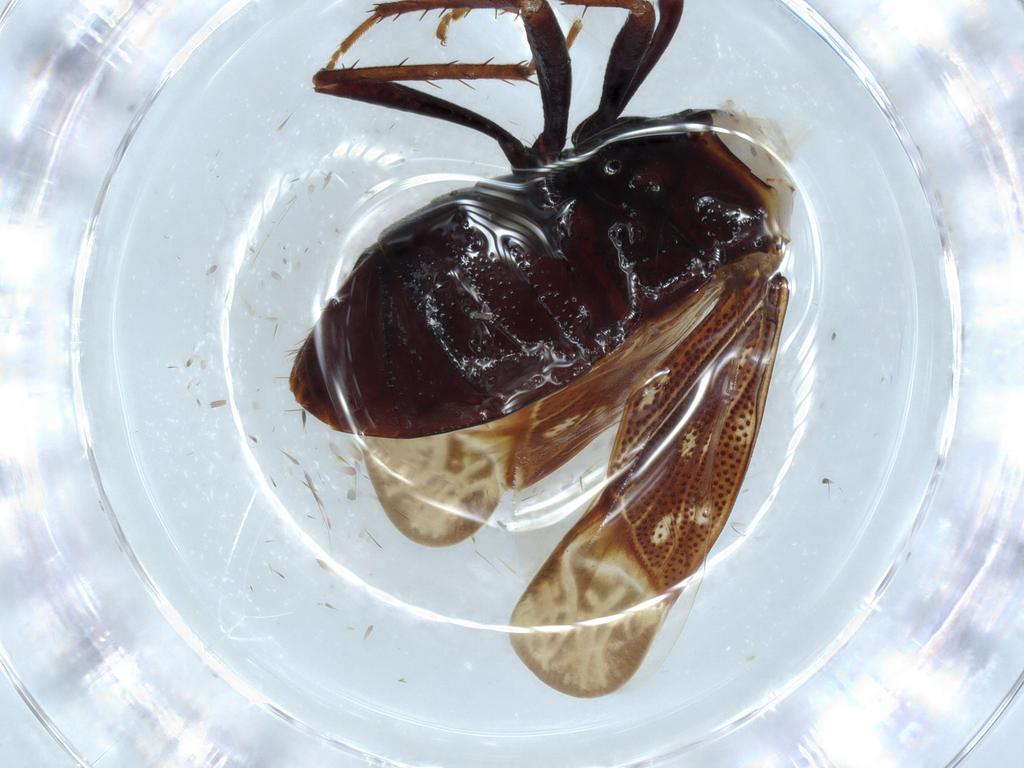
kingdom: Animalia
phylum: Arthropoda
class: Insecta
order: Hemiptera
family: Rhyparochromidae
